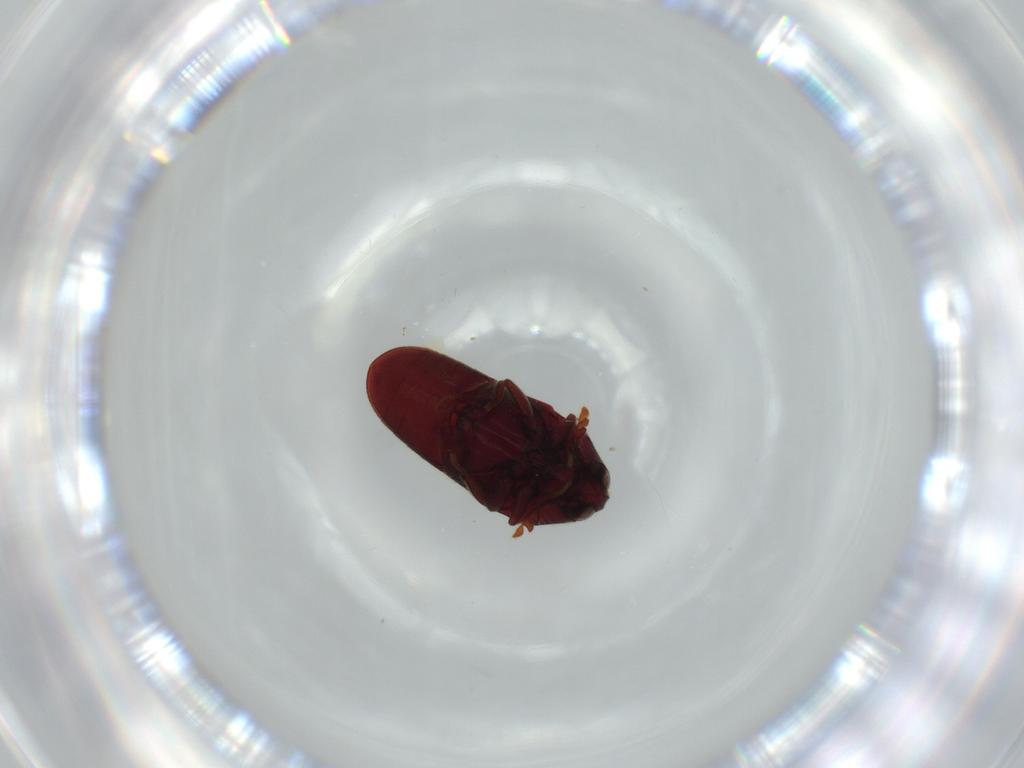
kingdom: Animalia
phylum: Arthropoda
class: Insecta
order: Coleoptera
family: Throscidae
